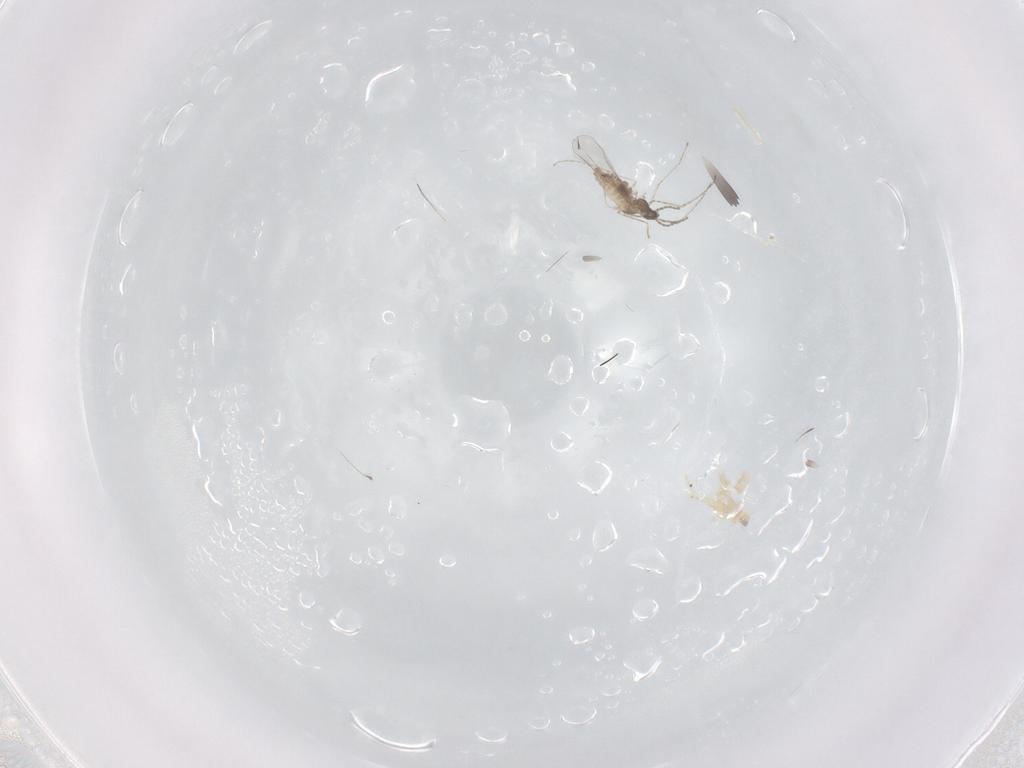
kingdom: Animalia
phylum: Arthropoda
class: Insecta
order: Diptera
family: Cecidomyiidae
